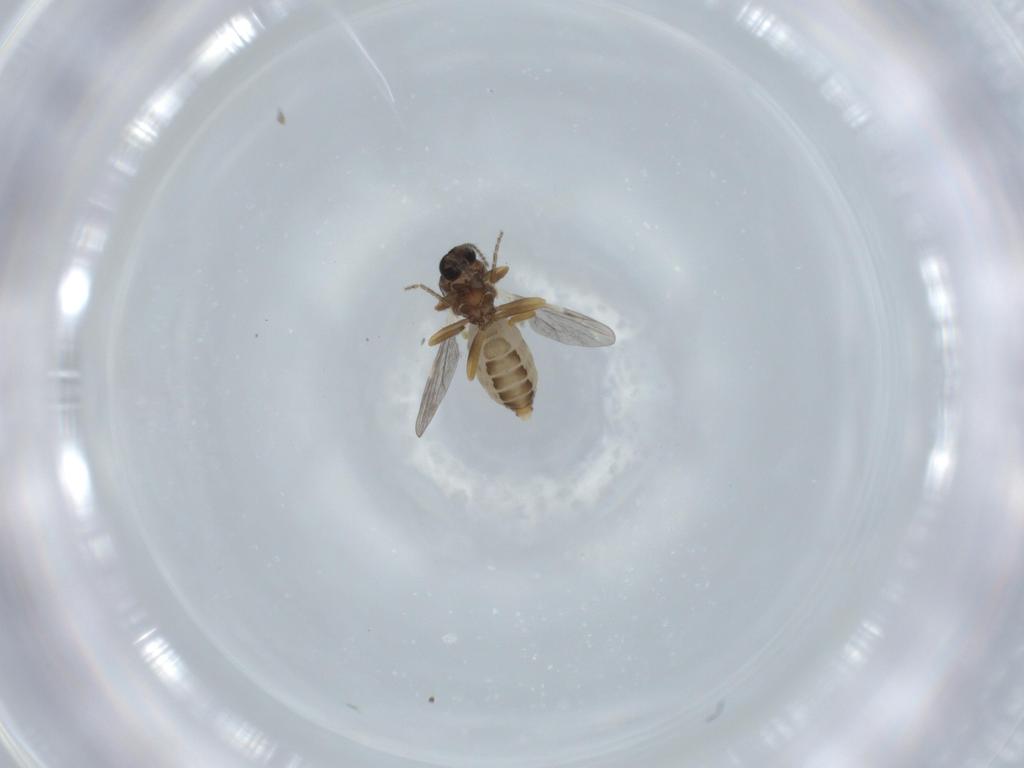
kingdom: Animalia
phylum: Arthropoda
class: Insecta
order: Diptera
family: Ceratopogonidae
